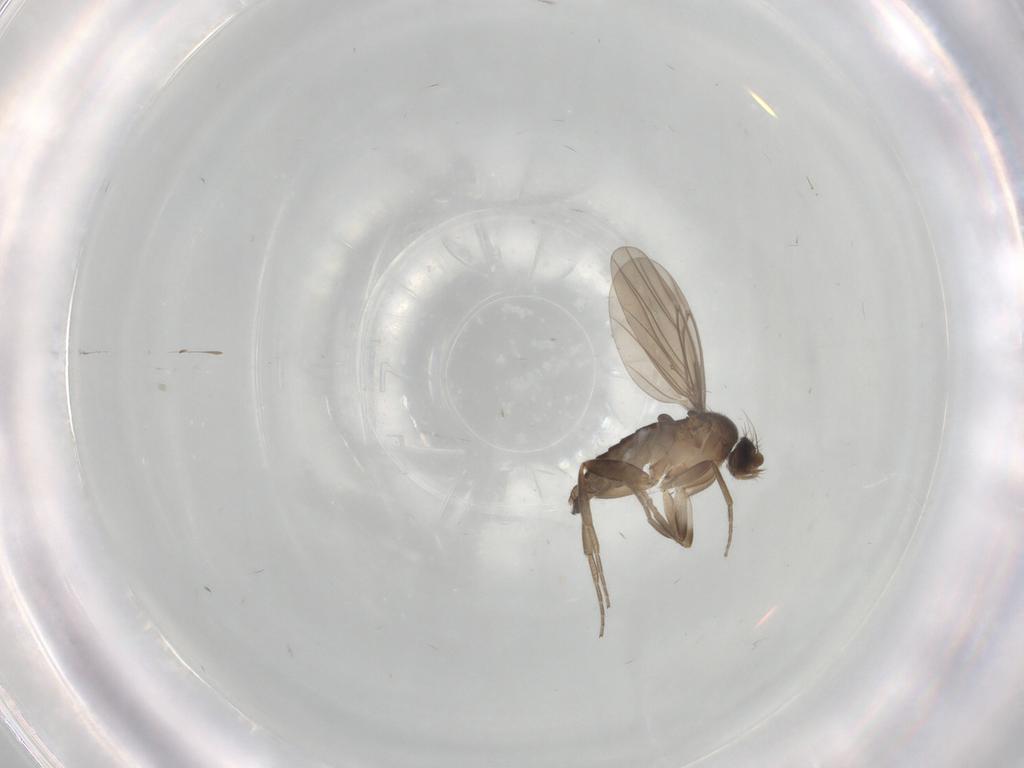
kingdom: Animalia
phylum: Arthropoda
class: Insecta
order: Diptera
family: Ditomyiidae
